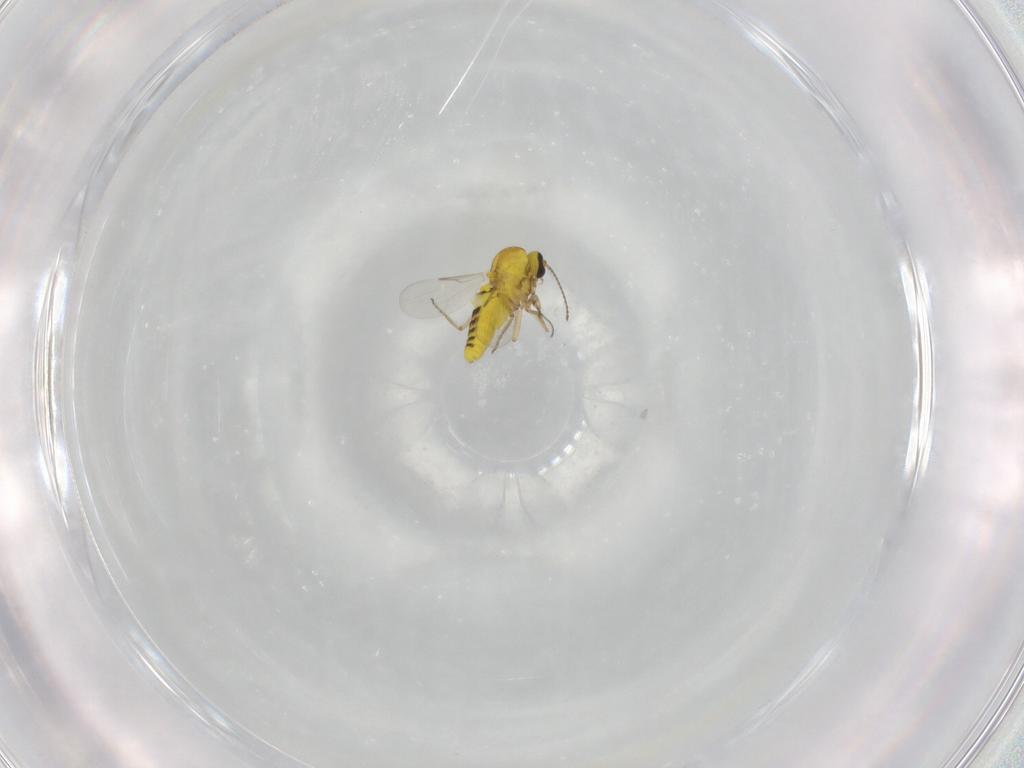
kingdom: Animalia
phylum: Arthropoda
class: Insecta
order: Diptera
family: Ceratopogonidae
